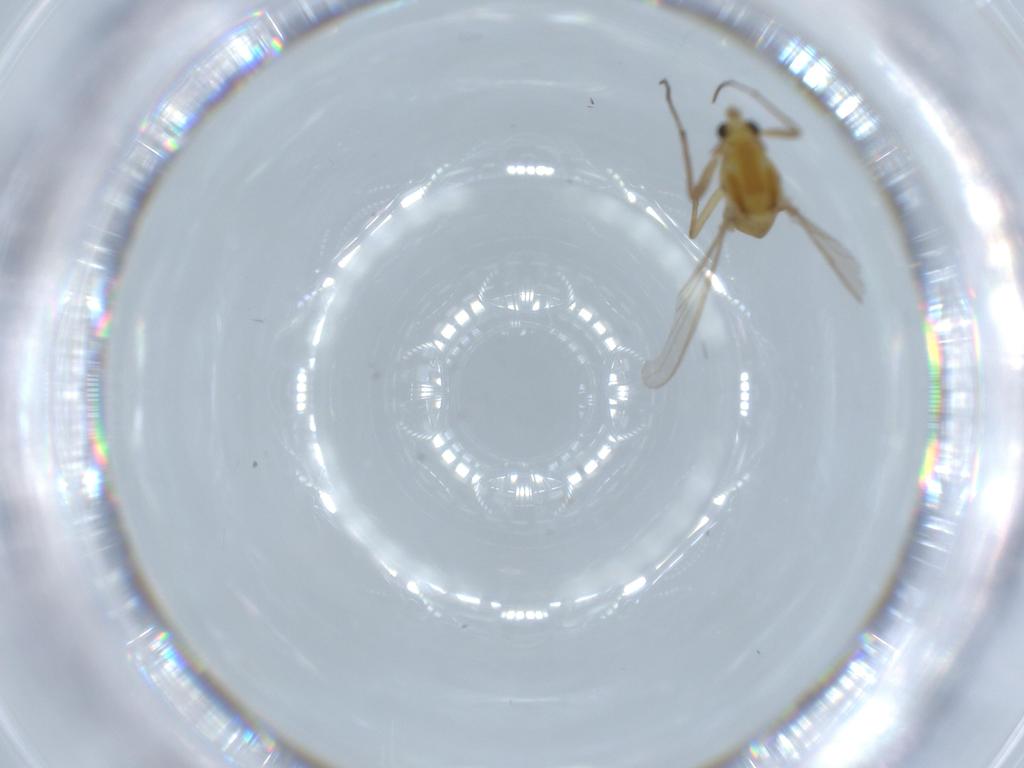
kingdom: Animalia
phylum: Arthropoda
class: Insecta
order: Diptera
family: Chironomidae
